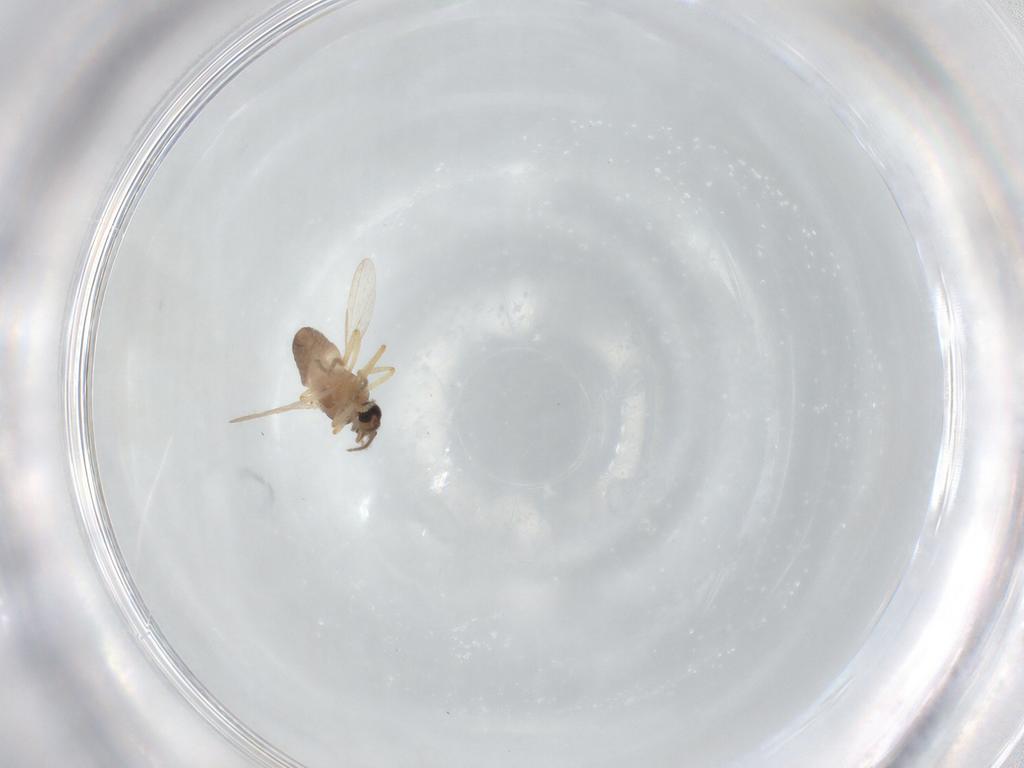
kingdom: Animalia
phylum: Arthropoda
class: Insecta
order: Diptera
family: Ceratopogonidae
